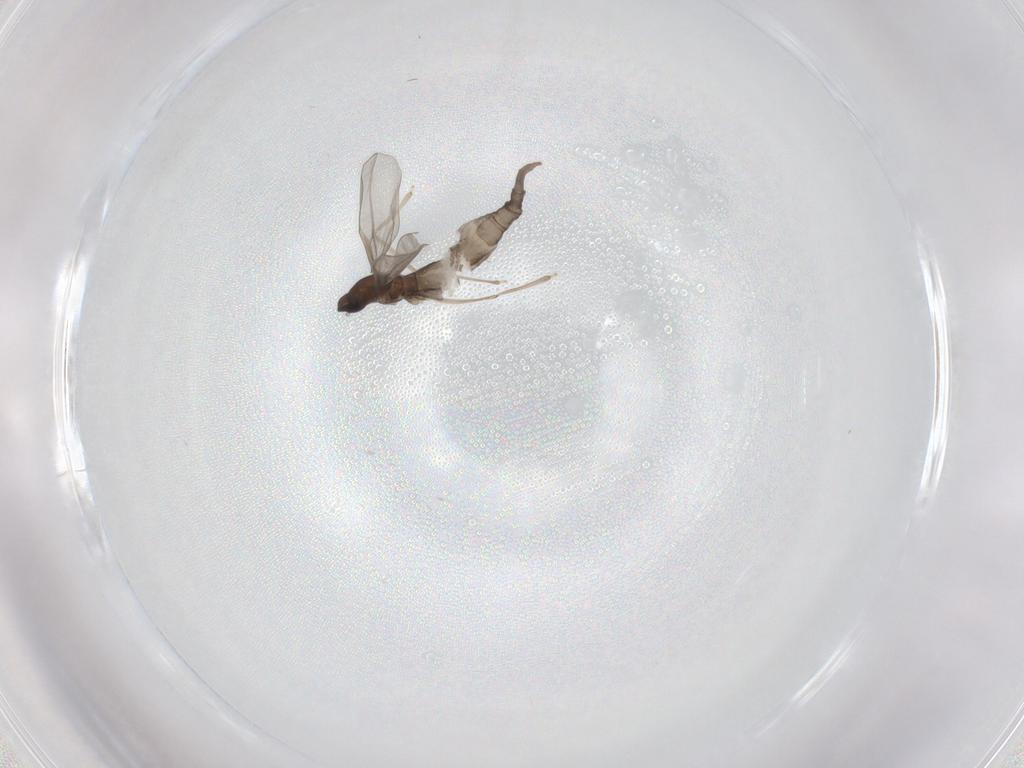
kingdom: Animalia
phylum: Arthropoda
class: Insecta
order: Diptera
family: Cecidomyiidae
